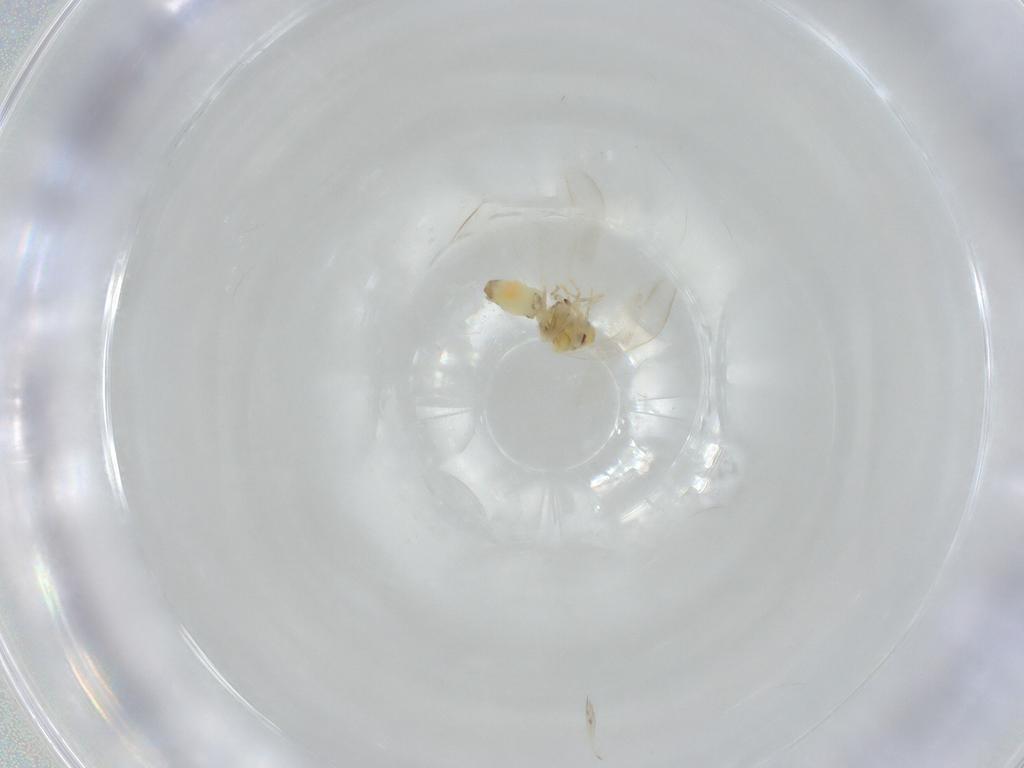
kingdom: Animalia
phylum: Arthropoda
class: Insecta
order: Hemiptera
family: Aleyrodidae
